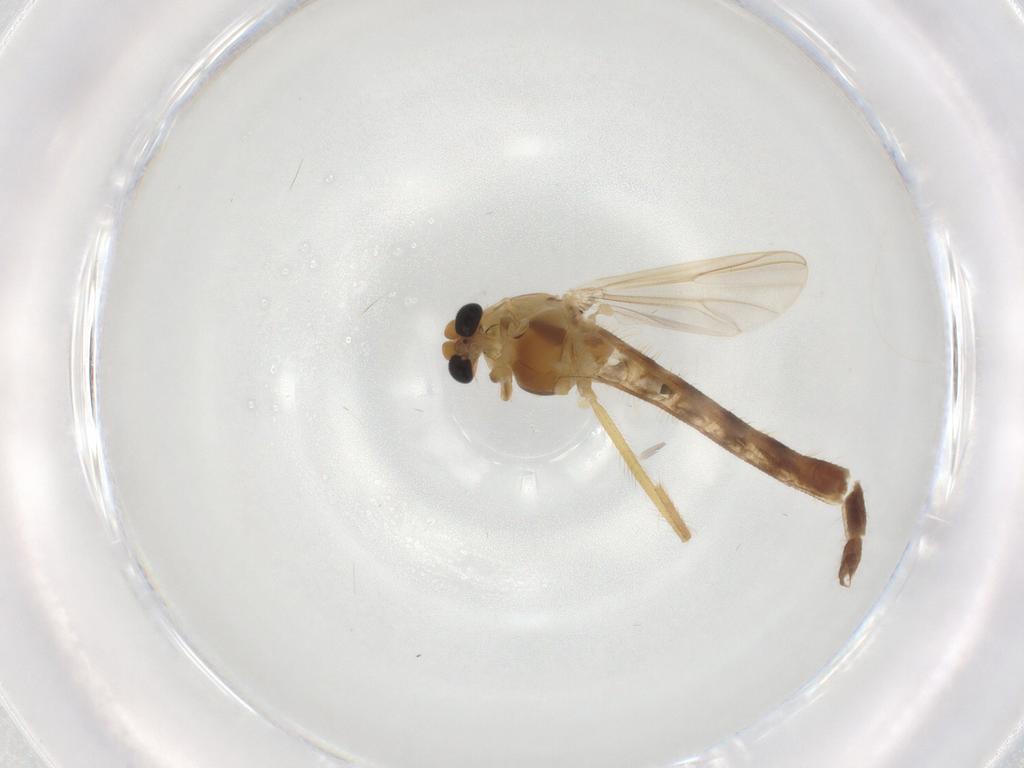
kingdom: Animalia
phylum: Arthropoda
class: Insecta
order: Diptera
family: Chironomidae
